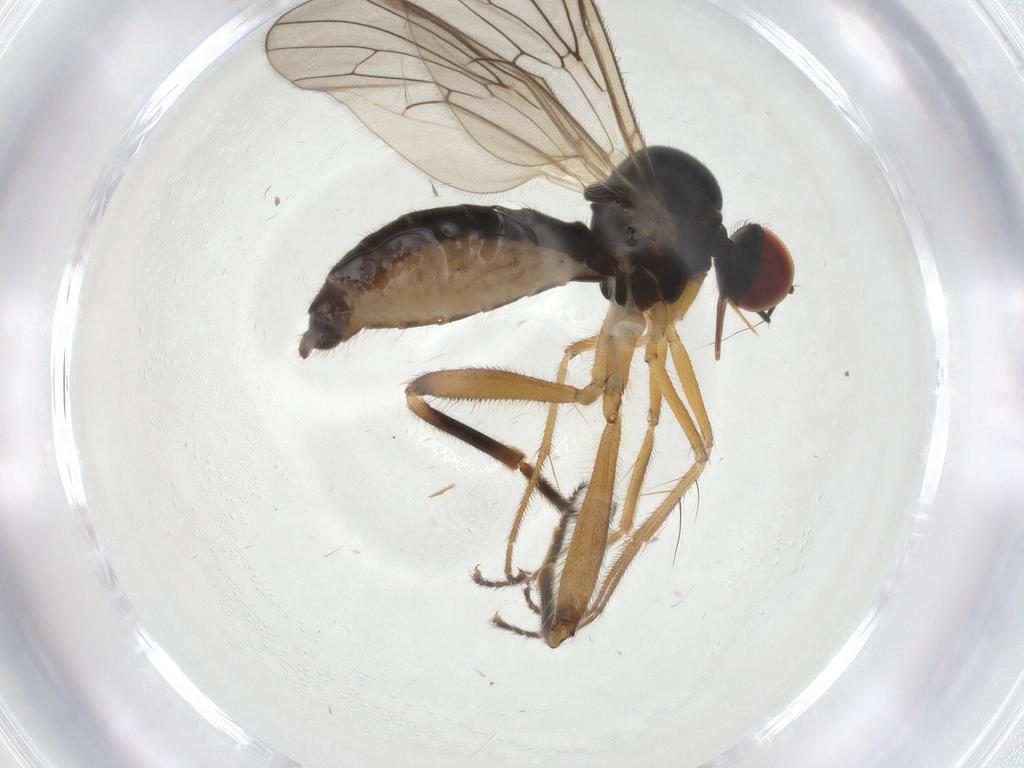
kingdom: Animalia
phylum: Arthropoda
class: Insecta
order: Diptera
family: Hybotidae
